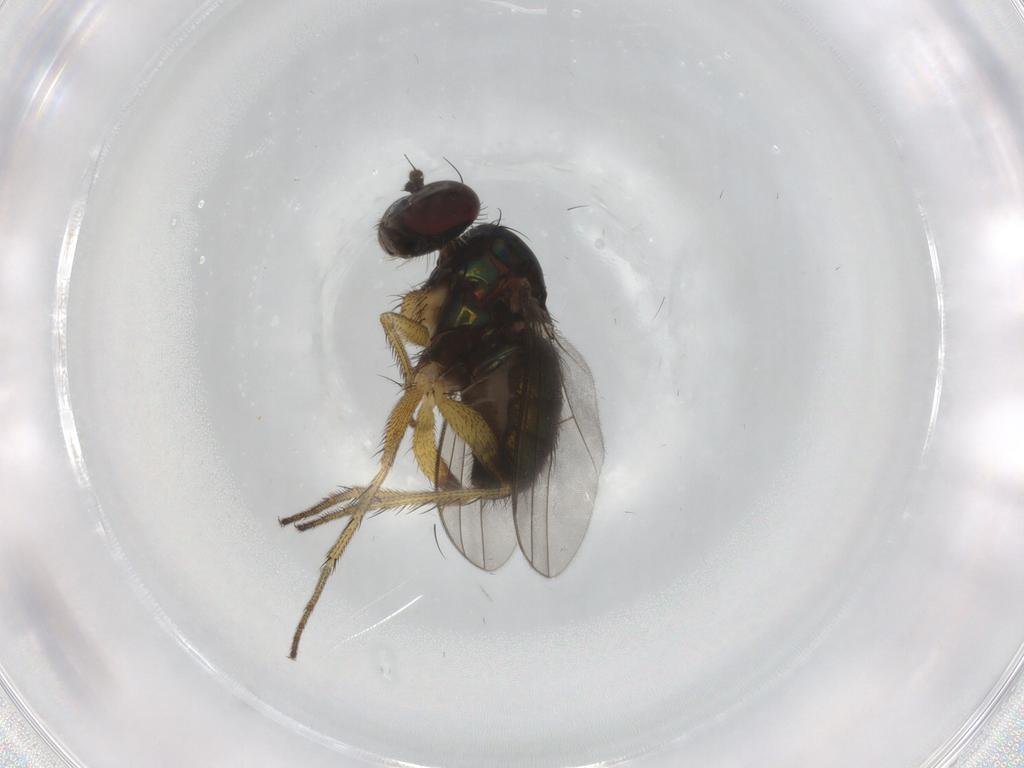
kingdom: Animalia
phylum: Arthropoda
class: Insecta
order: Diptera
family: Dolichopodidae
